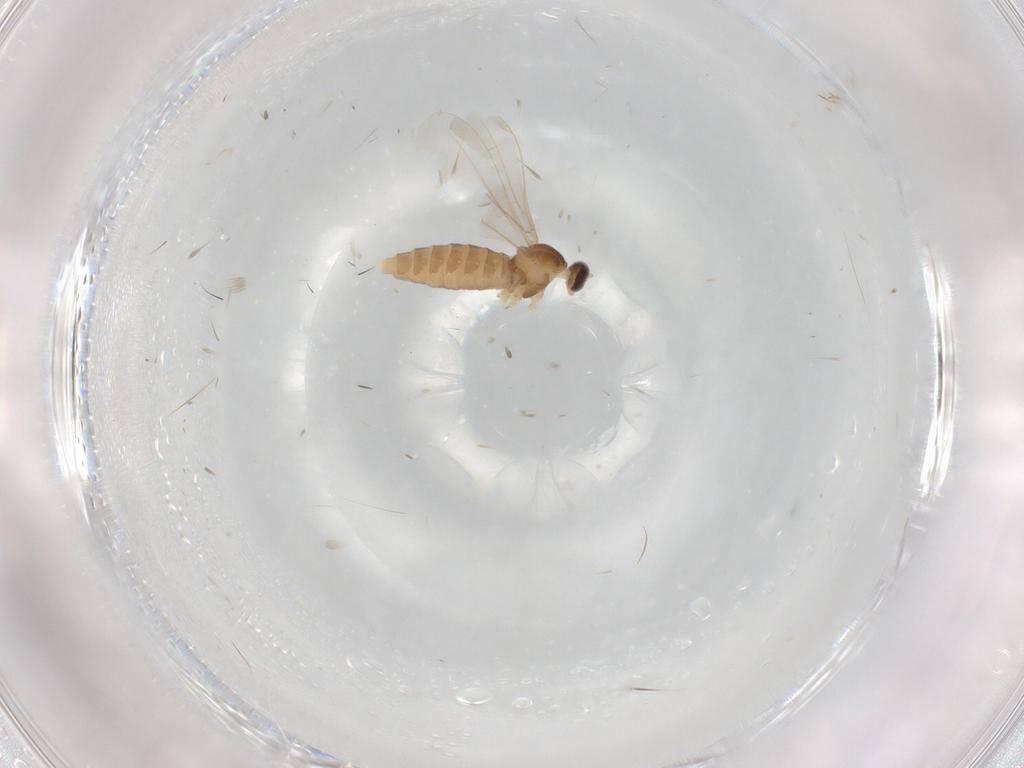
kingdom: Animalia
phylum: Arthropoda
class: Insecta
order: Diptera
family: Cecidomyiidae
